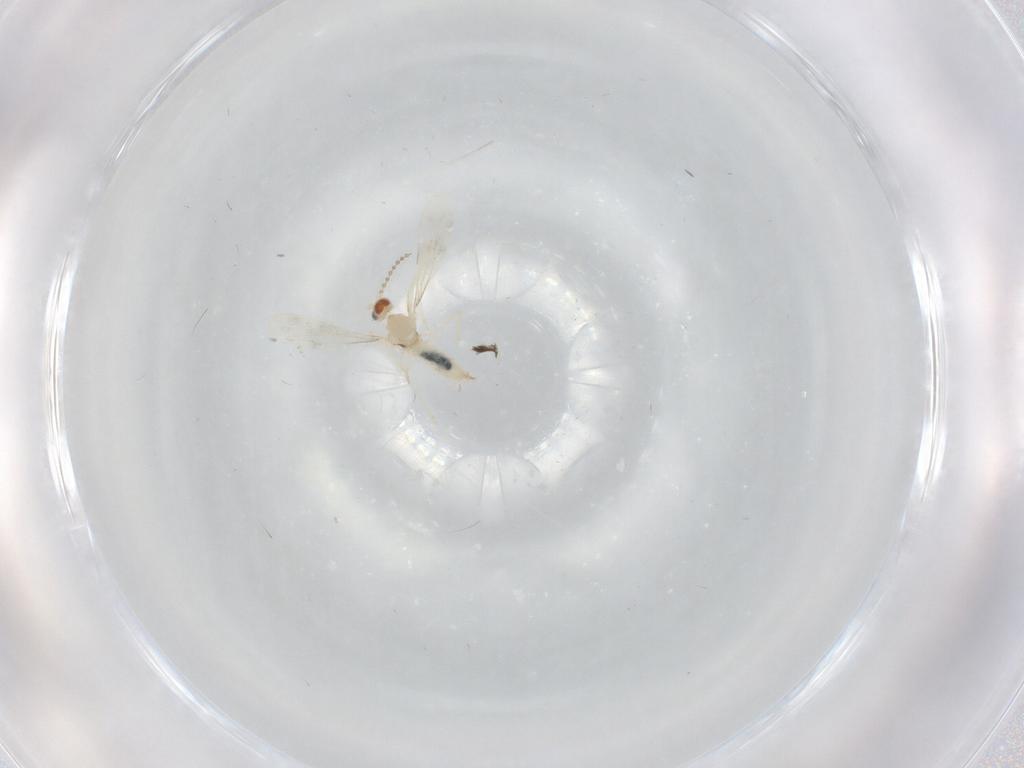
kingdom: Animalia
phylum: Arthropoda
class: Insecta
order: Diptera
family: Cecidomyiidae
